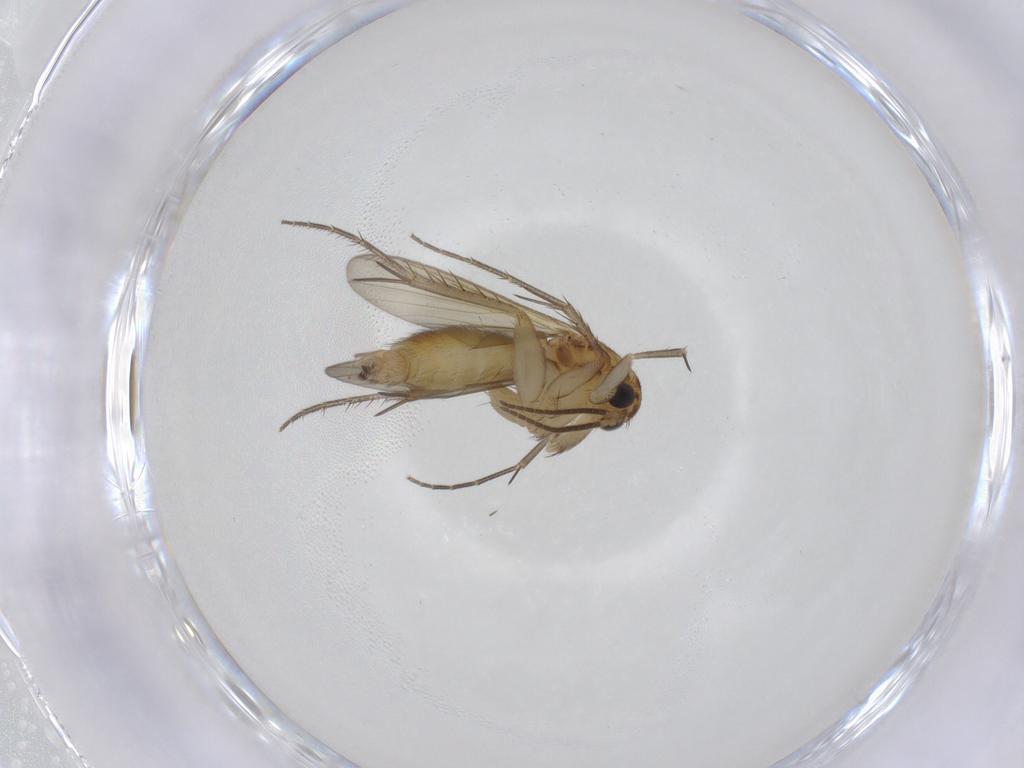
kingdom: Animalia
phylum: Arthropoda
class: Insecta
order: Diptera
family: Mycetophilidae
